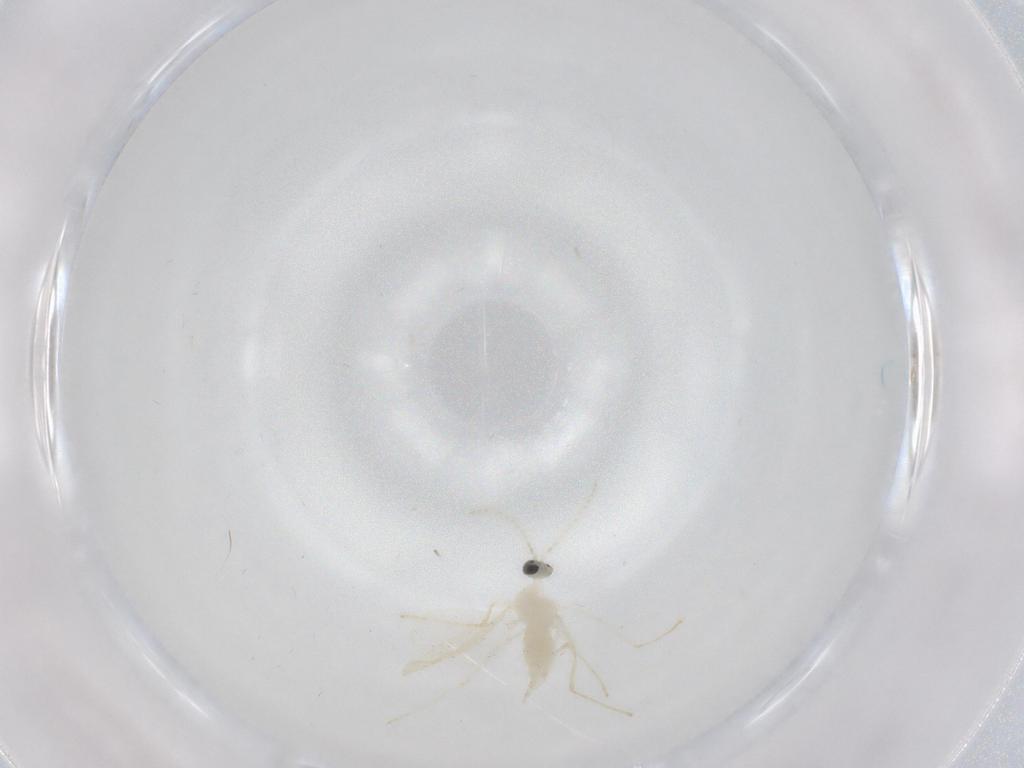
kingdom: Animalia
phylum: Arthropoda
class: Insecta
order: Diptera
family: Cecidomyiidae
